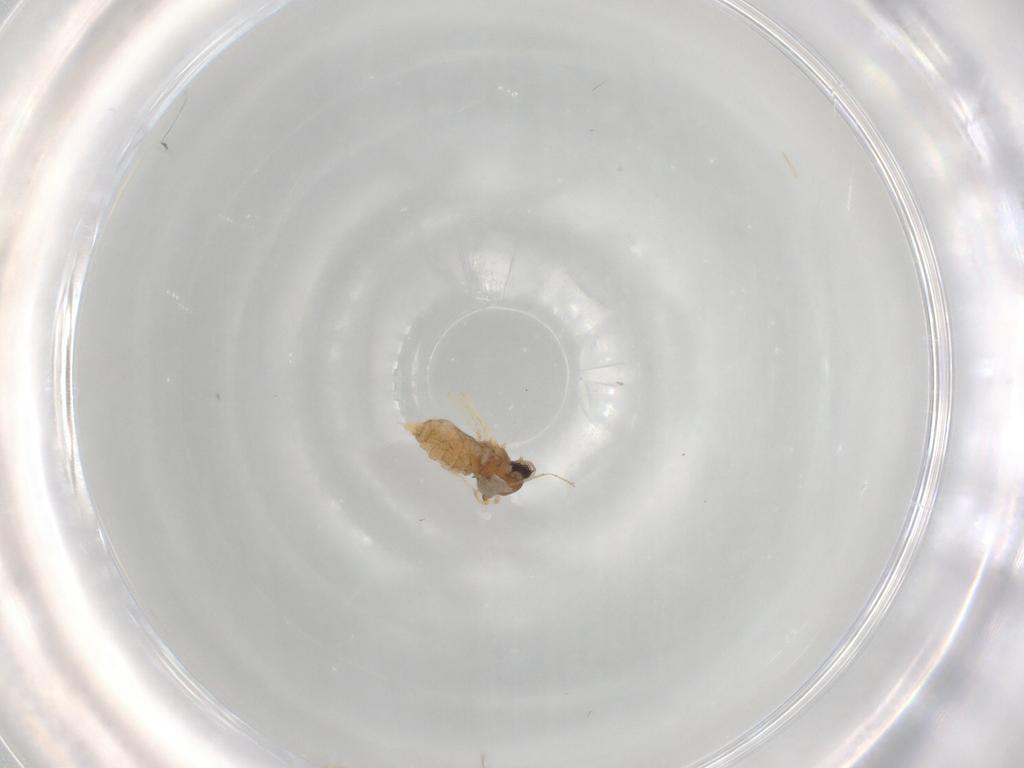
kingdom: Animalia
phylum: Arthropoda
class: Insecta
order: Diptera
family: Cecidomyiidae
